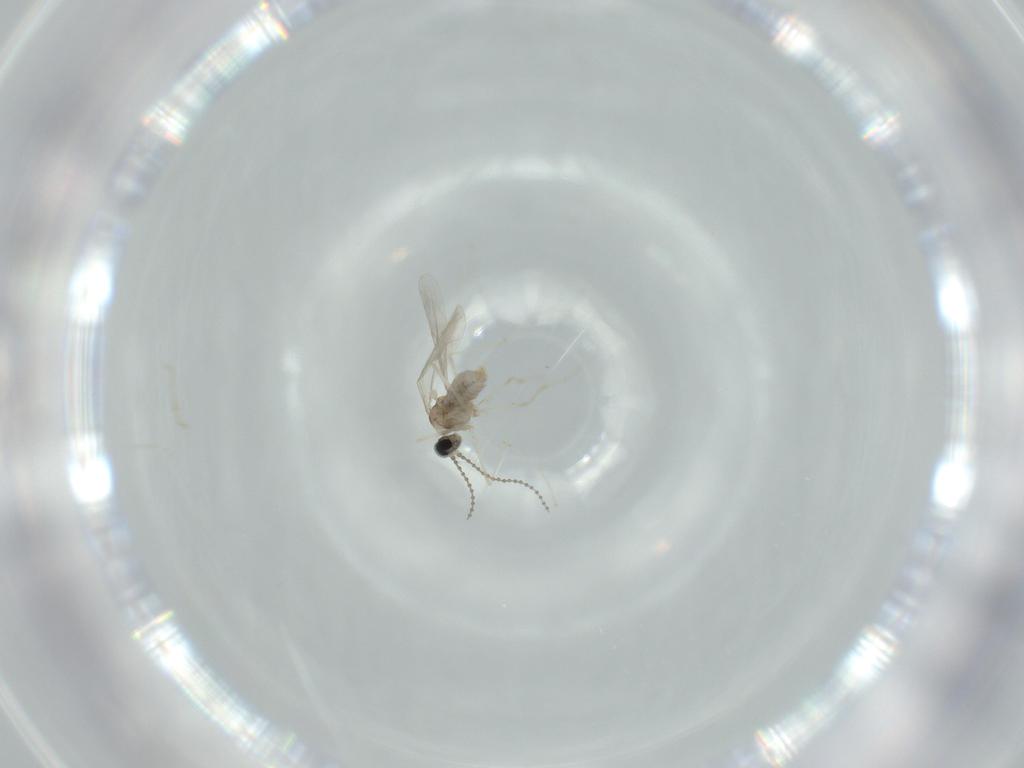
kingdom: Animalia
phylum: Arthropoda
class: Insecta
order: Diptera
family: Cecidomyiidae
